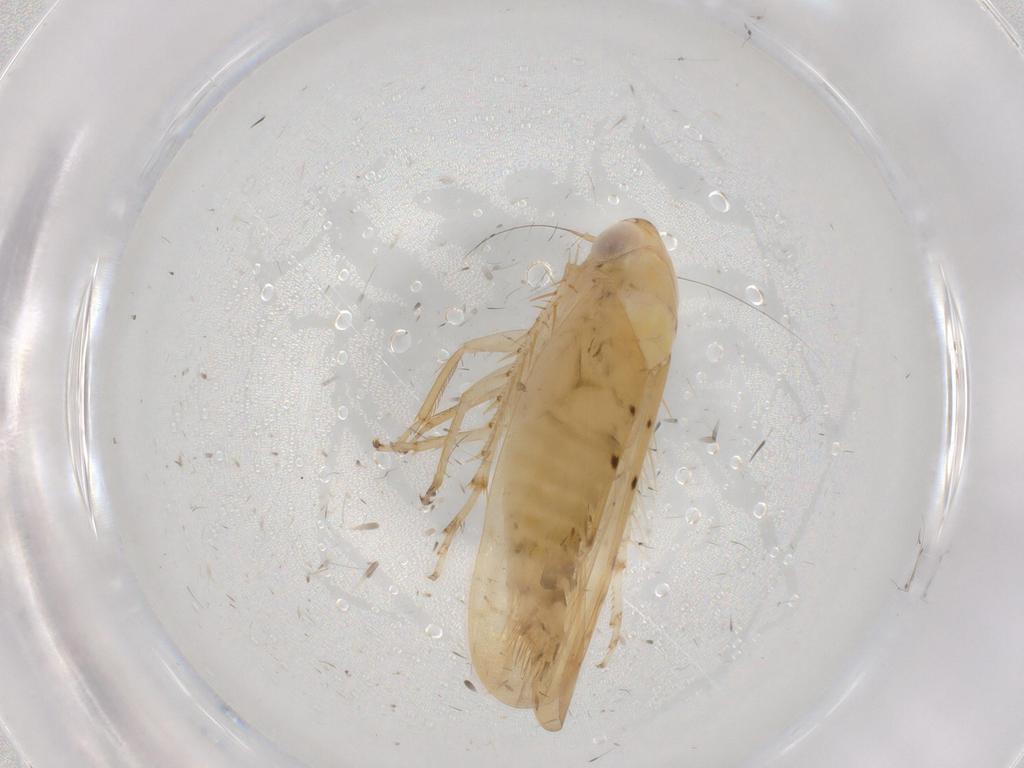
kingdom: Animalia
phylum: Arthropoda
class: Insecta
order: Hemiptera
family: Cicadellidae
